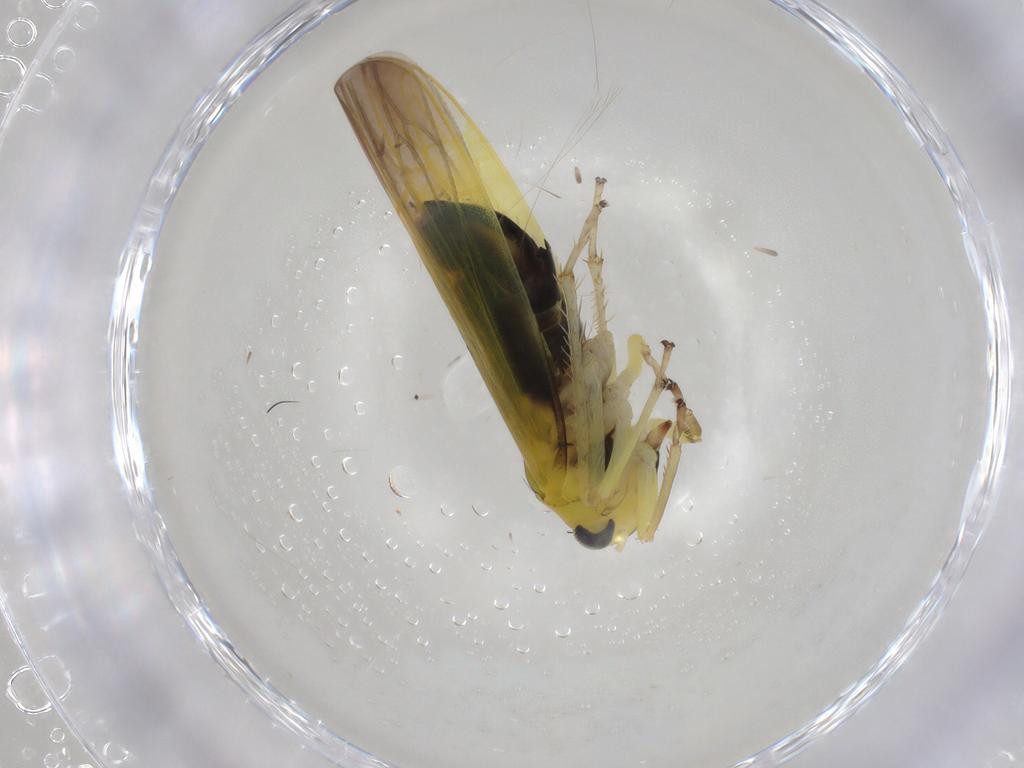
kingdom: Animalia
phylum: Arthropoda
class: Insecta
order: Hemiptera
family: Cicadellidae
